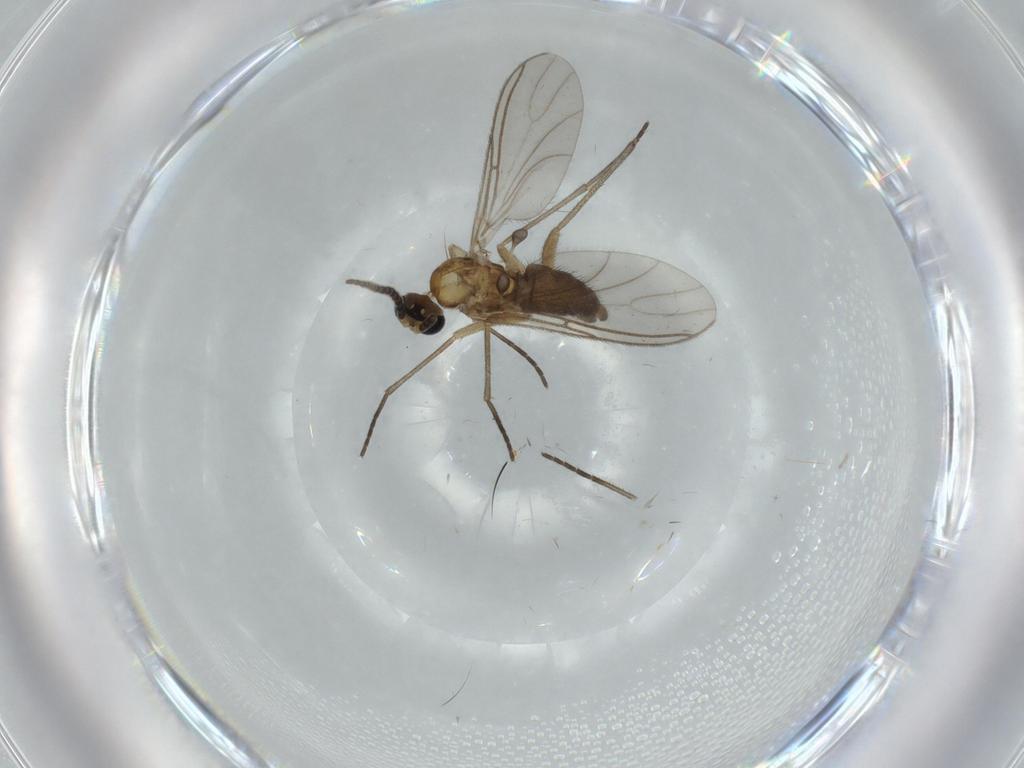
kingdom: Animalia
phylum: Arthropoda
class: Insecta
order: Diptera
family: Sciaridae
